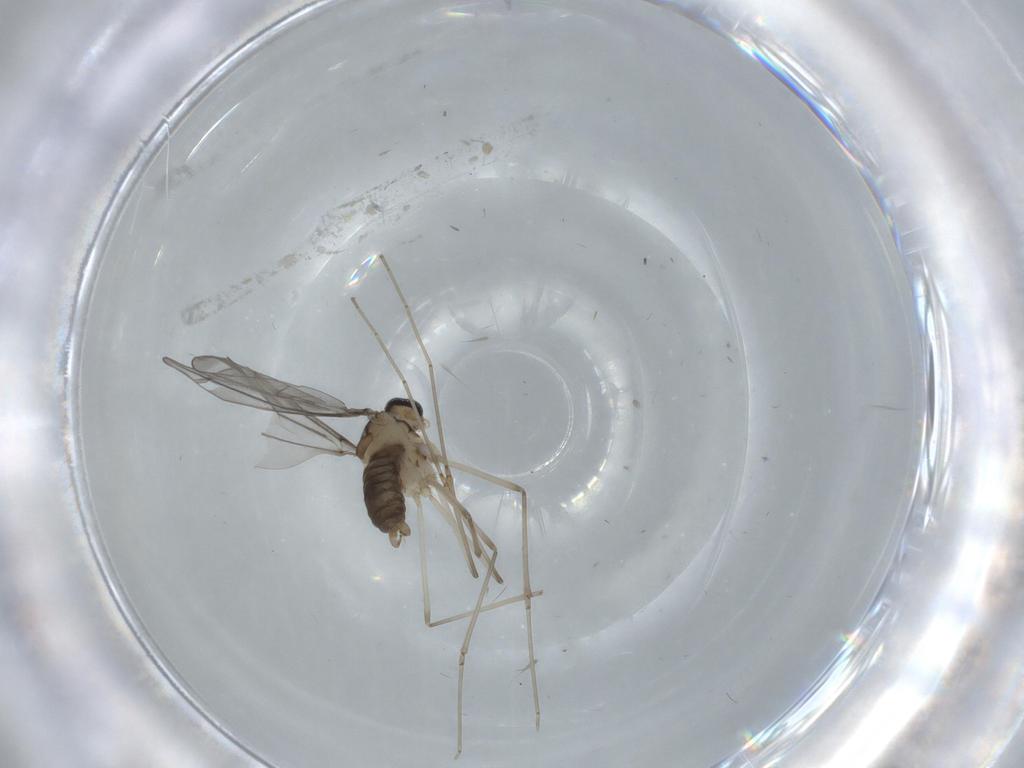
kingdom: Animalia
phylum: Arthropoda
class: Insecta
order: Diptera
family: Cecidomyiidae
